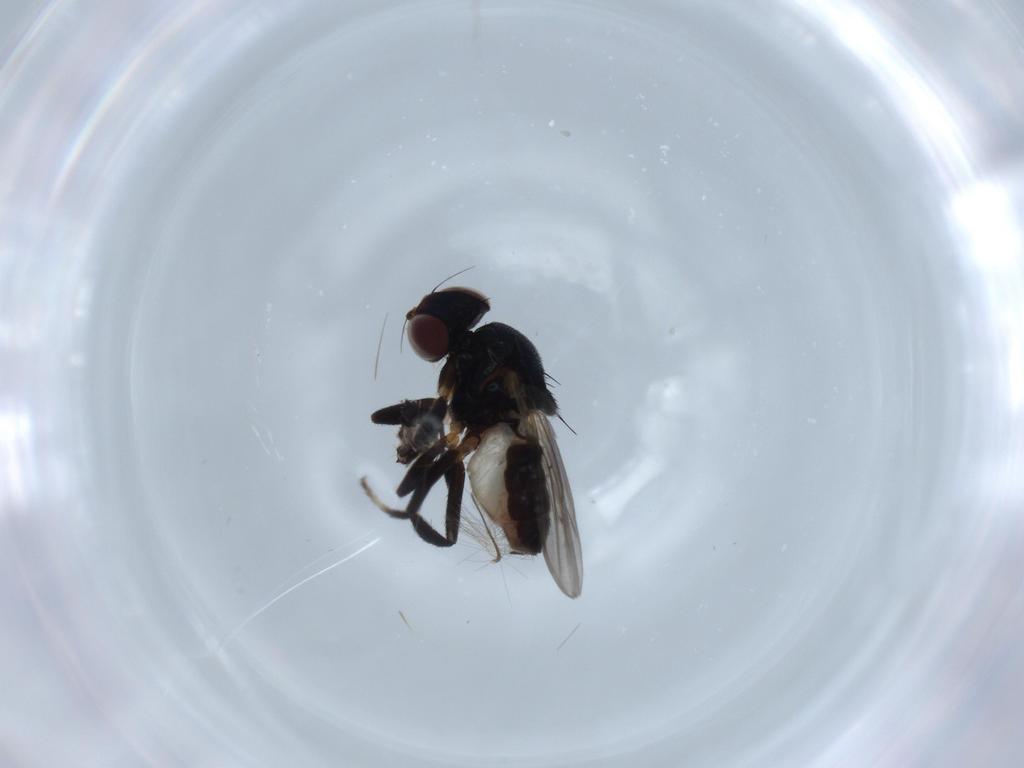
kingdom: Animalia
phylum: Arthropoda
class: Insecta
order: Diptera
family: Chloropidae
